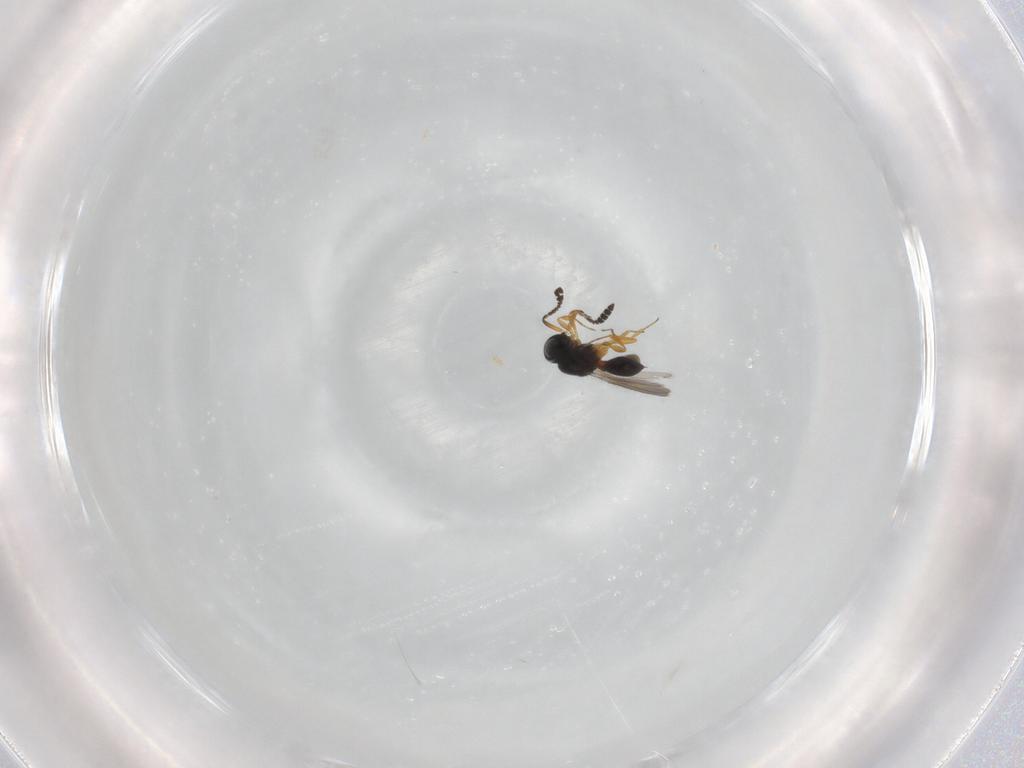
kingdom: Animalia
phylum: Arthropoda
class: Insecta
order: Hymenoptera
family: Scelionidae
